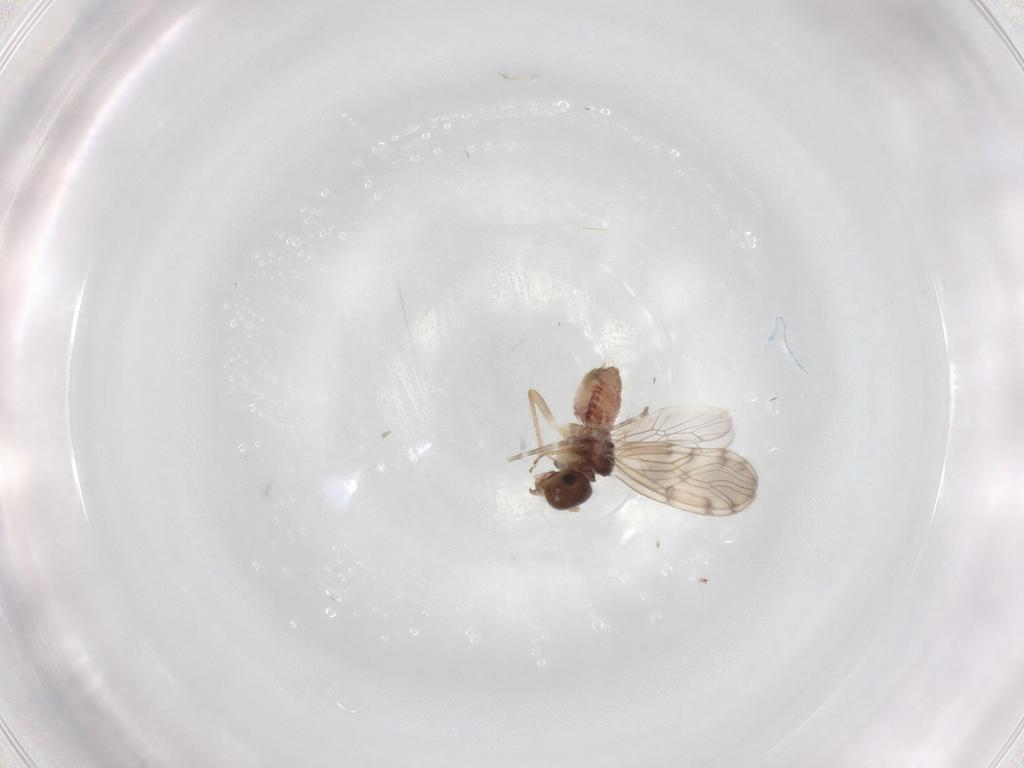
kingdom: Animalia
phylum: Arthropoda
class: Insecta
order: Psocodea
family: Peripsocidae
